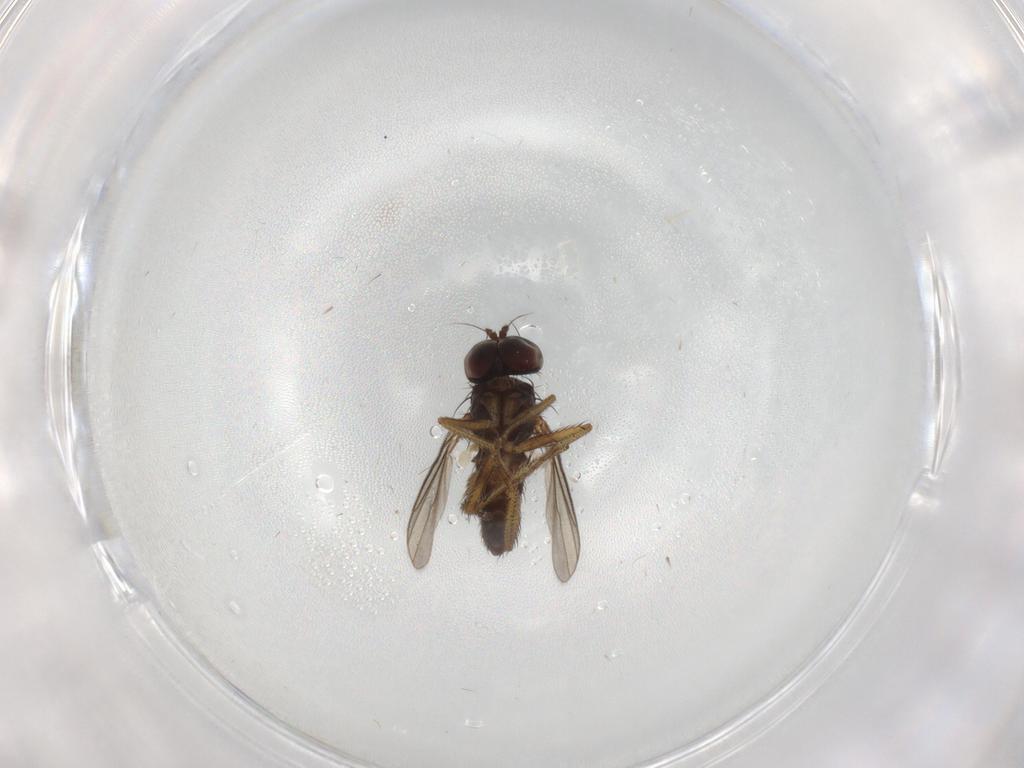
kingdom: Animalia
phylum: Arthropoda
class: Insecta
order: Diptera
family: Dolichopodidae
